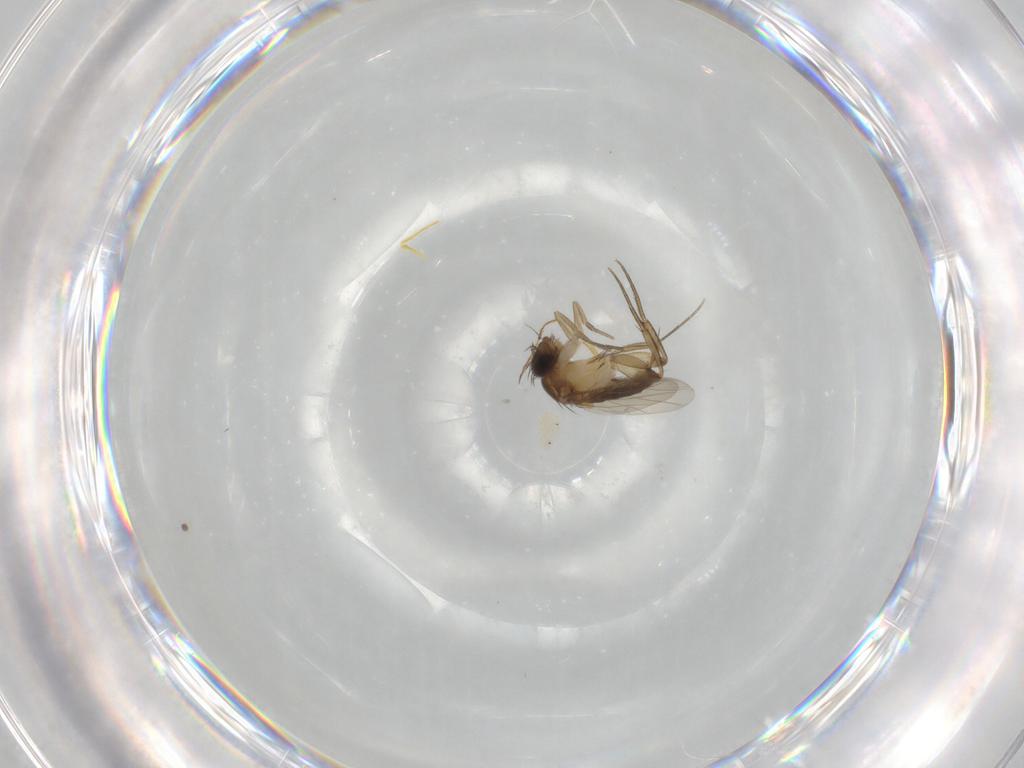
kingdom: Animalia
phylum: Arthropoda
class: Insecta
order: Diptera
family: Phoridae
